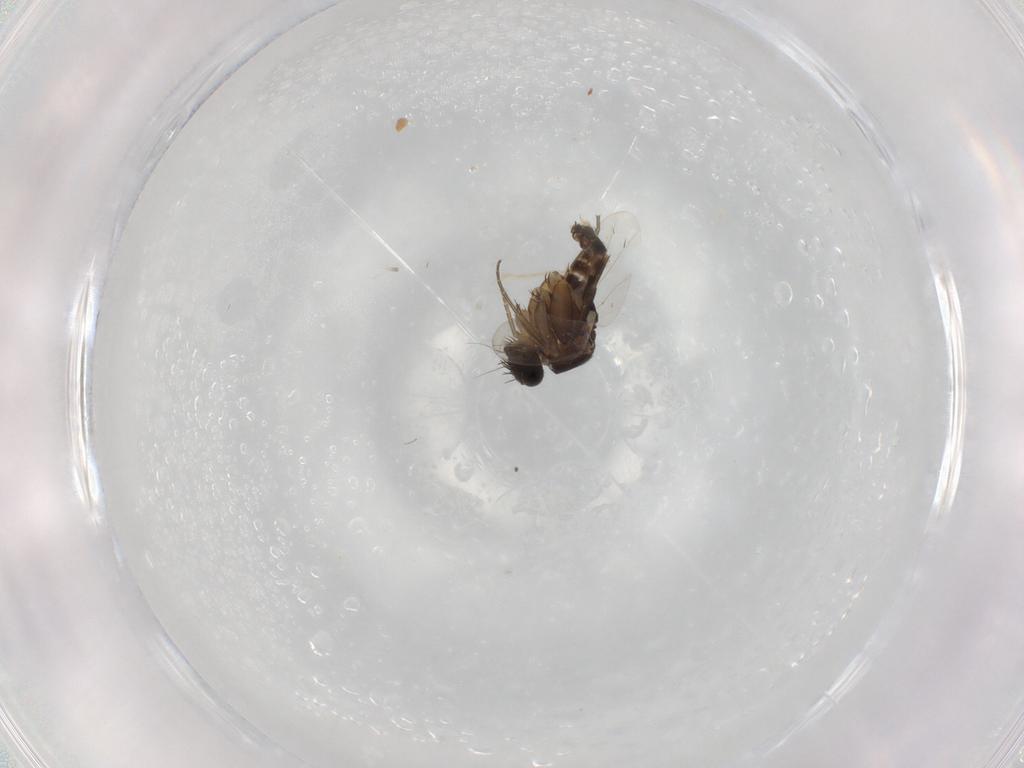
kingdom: Animalia
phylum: Arthropoda
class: Insecta
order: Diptera
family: Phoridae
